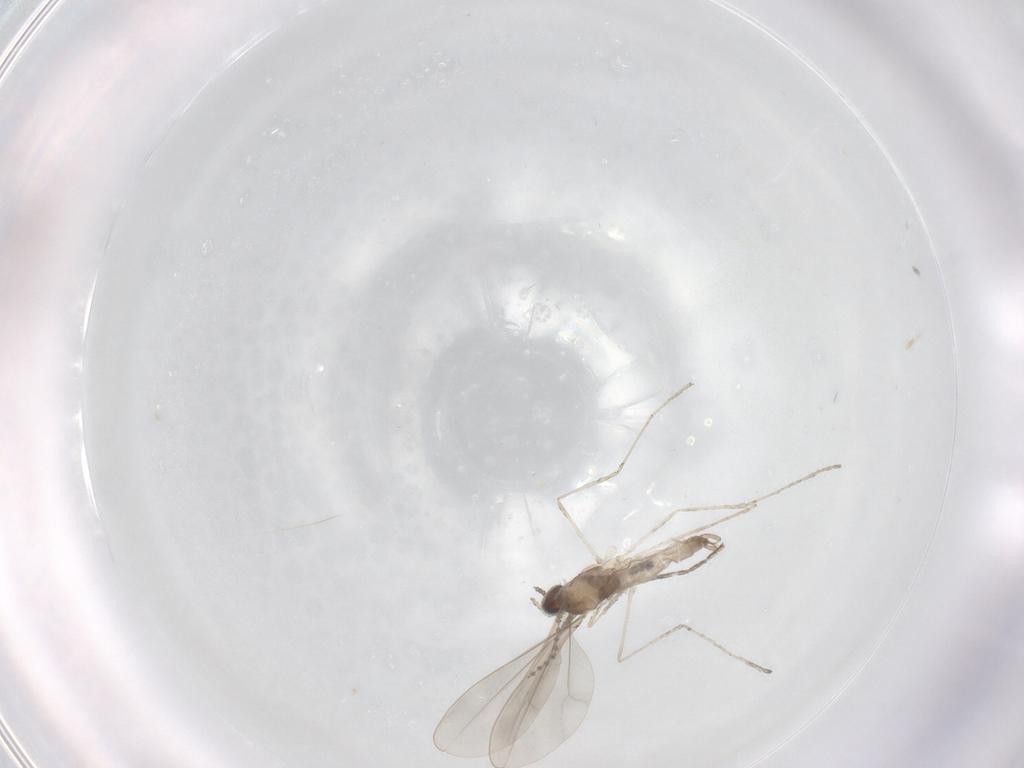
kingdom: Animalia
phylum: Arthropoda
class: Insecta
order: Diptera
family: Cecidomyiidae
